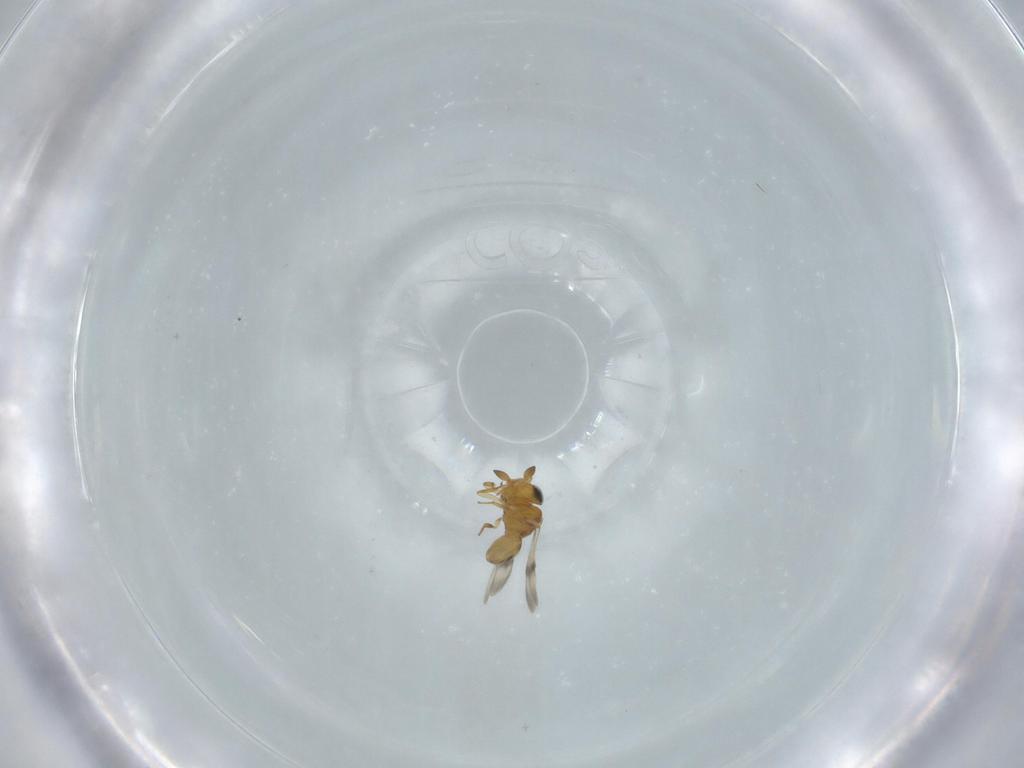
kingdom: Animalia
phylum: Arthropoda
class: Insecta
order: Hymenoptera
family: Scelionidae
